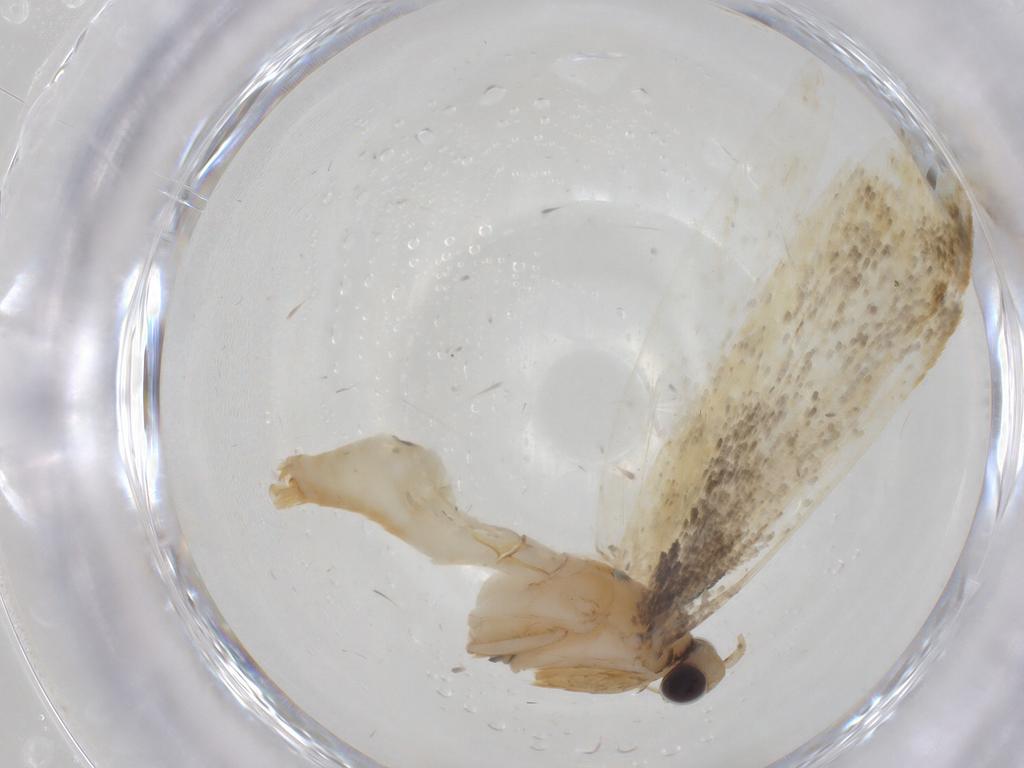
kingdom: Animalia
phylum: Arthropoda
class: Insecta
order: Lepidoptera
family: Tineidae
